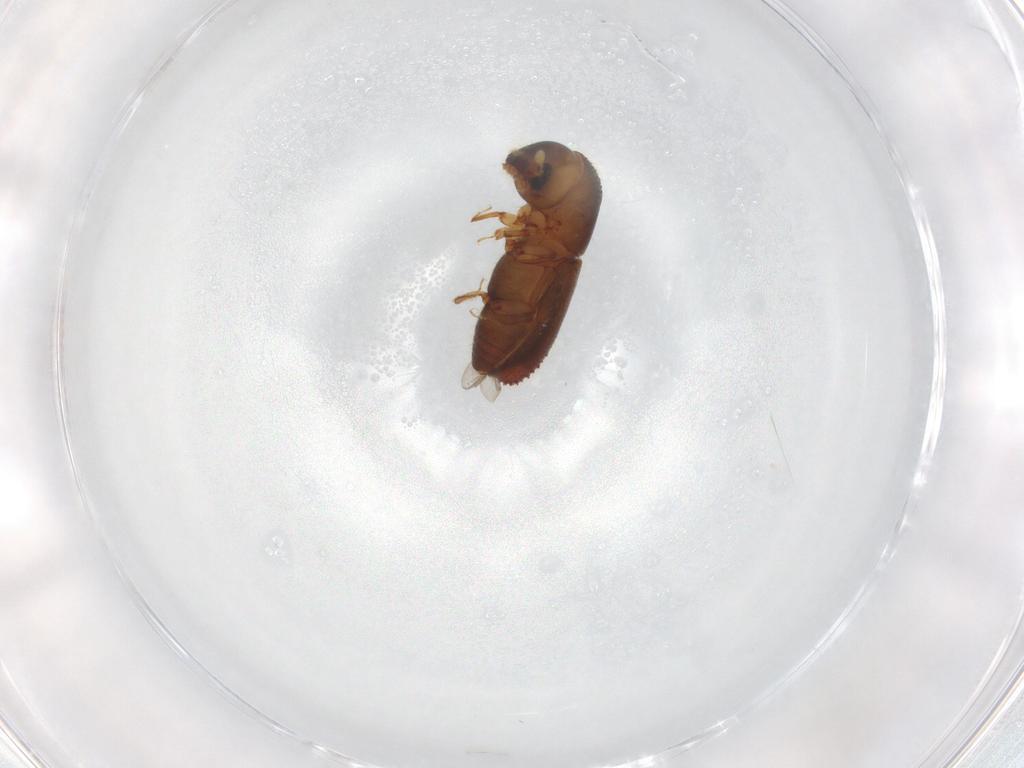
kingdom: Animalia
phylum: Arthropoda
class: Insecta
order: Coleoptera
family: Curculionidae
